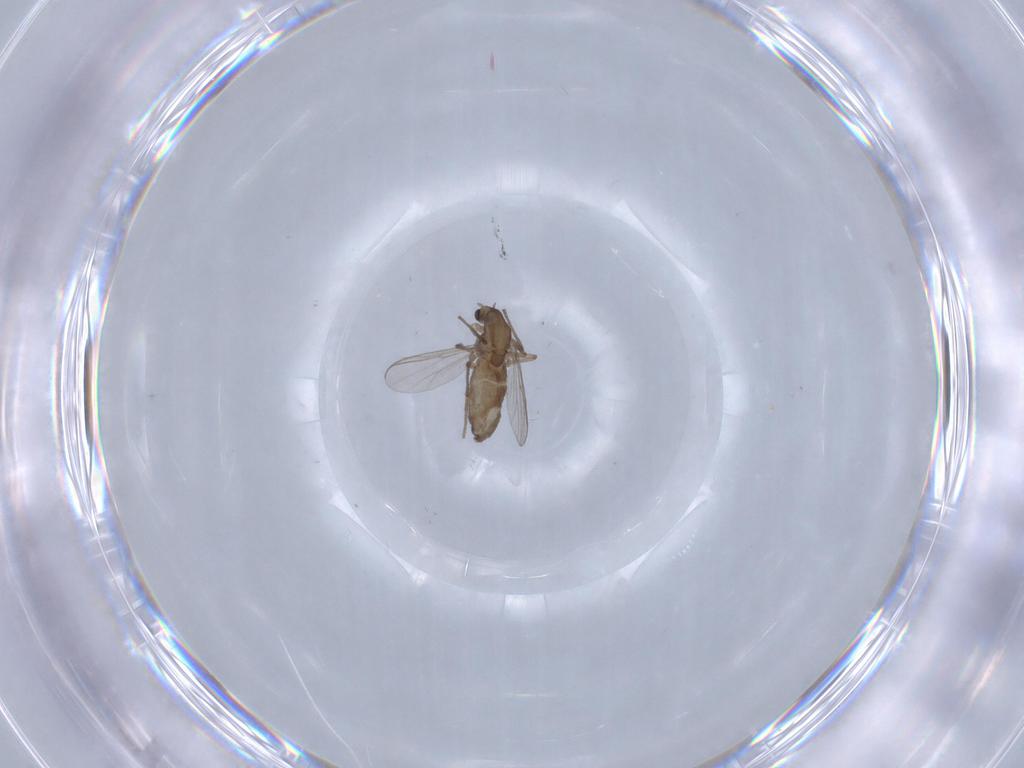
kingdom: Animalia
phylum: Arthropoda
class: Insecta
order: Diptera
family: Chironomidae
